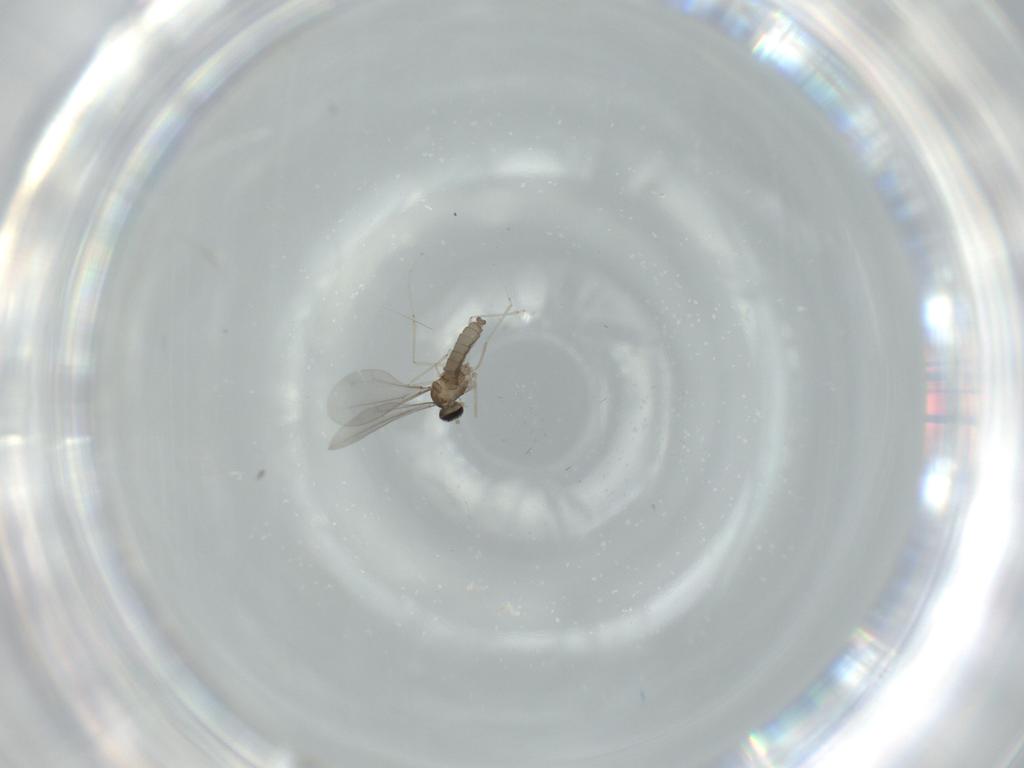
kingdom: Animalia
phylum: Arthropoda
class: Insecta
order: Diptera
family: Cecidomyiidae
